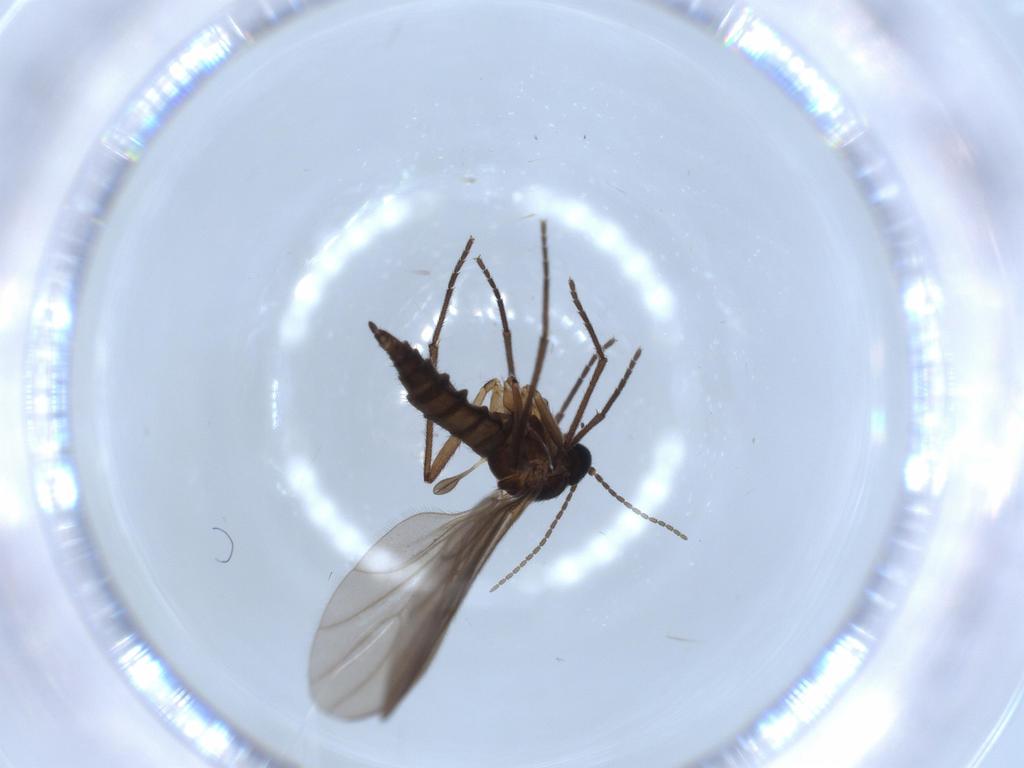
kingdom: Animalia
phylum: Arthropoda
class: Insecta
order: Diptera
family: Sciaridae
